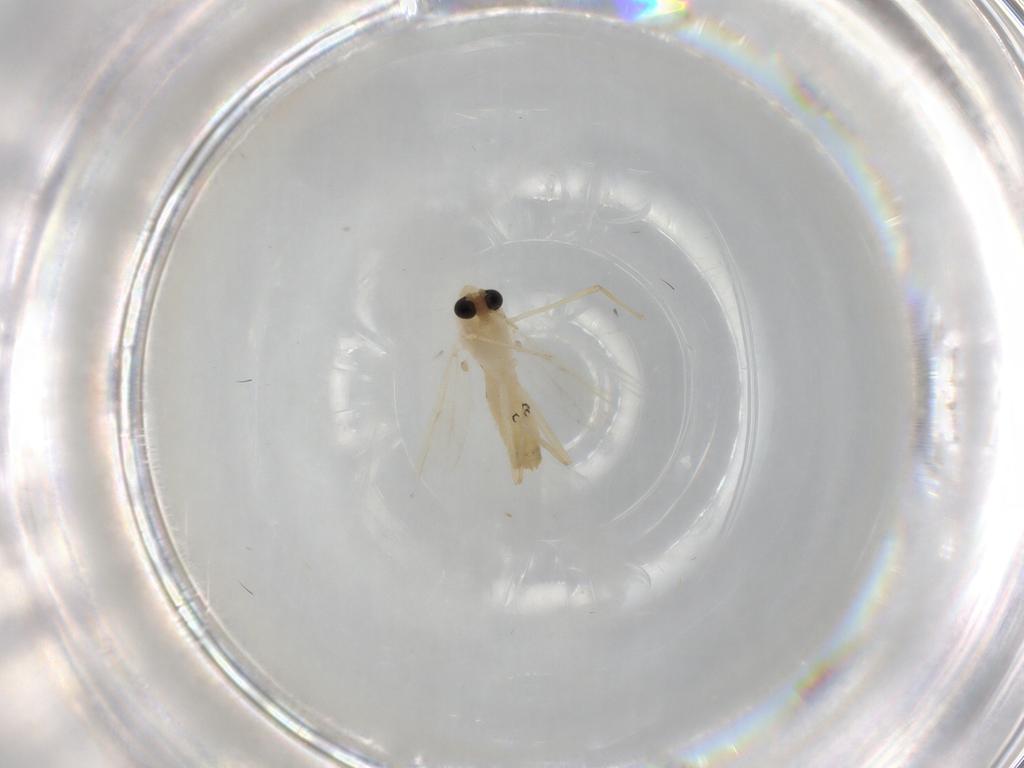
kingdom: Animalia
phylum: Arthropoda
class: Insecta
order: Diptera
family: Chironomidae
